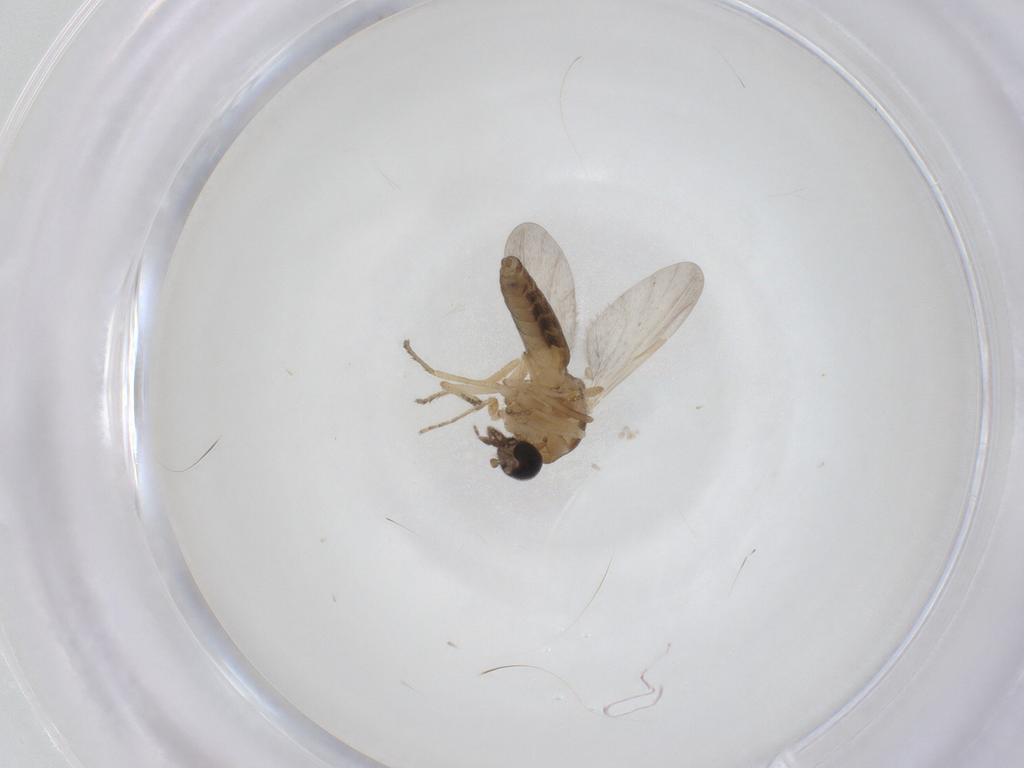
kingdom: Animalia
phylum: Arthropoda
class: Insecta
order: Diptera
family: Ceratopogonidae
